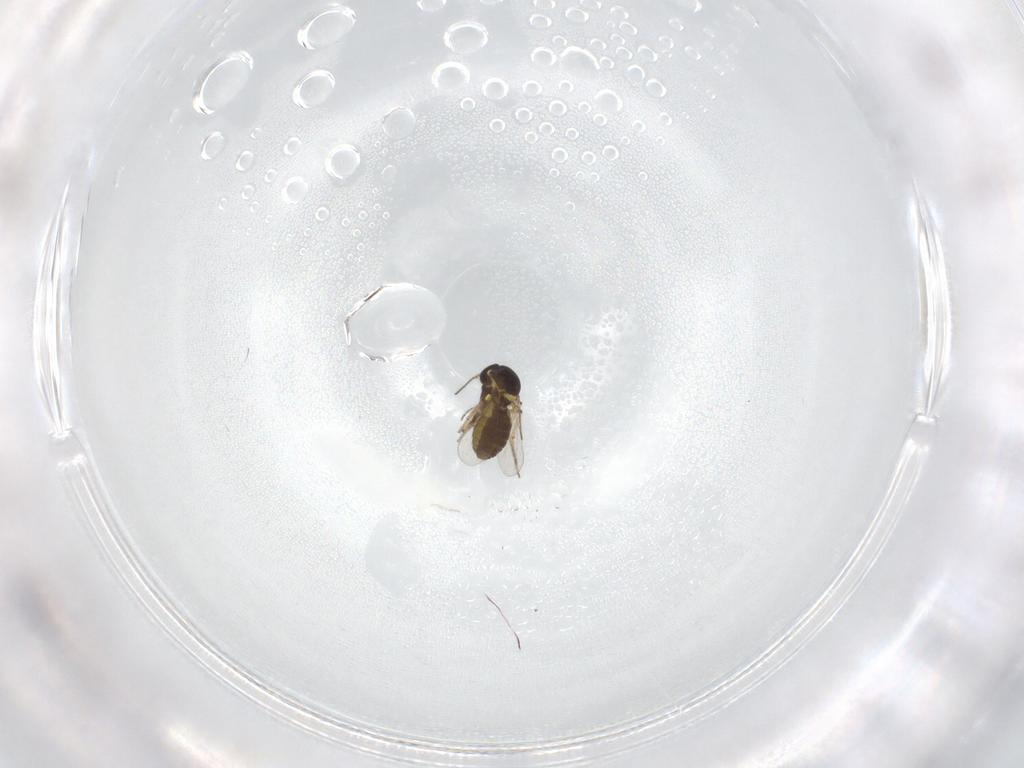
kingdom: Animalia
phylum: Arthropoda
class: Insecta
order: Diptera
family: Ceratopogonidae
